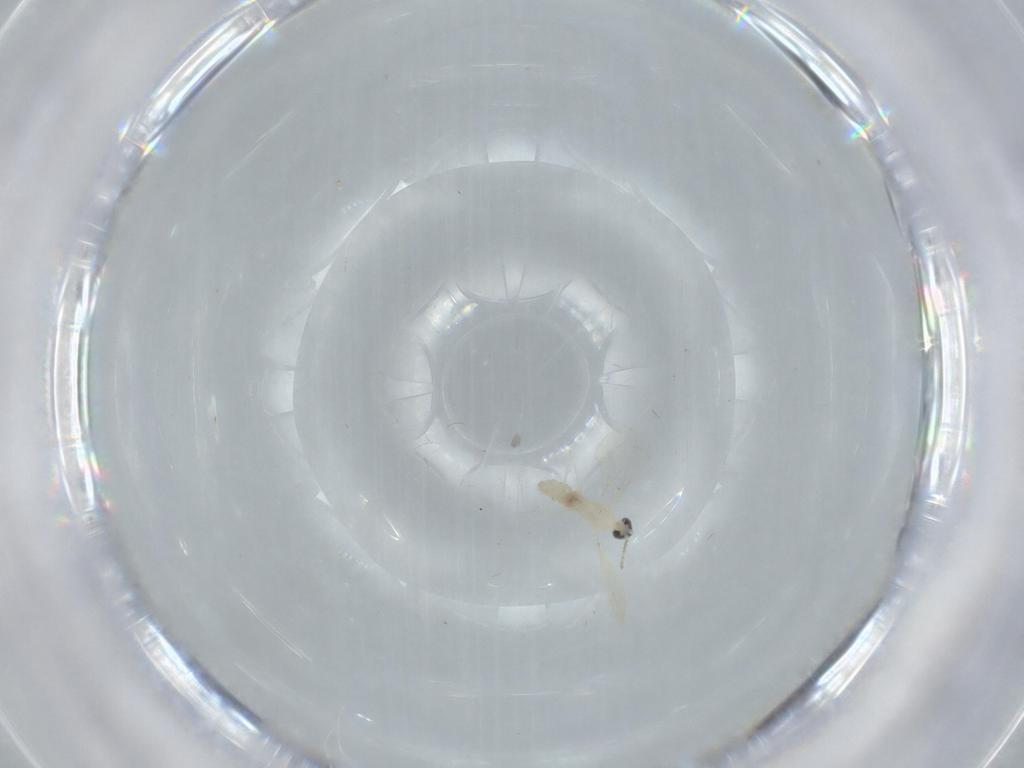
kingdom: Animalia
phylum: Arthropoda
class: Insecta
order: Diptera
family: Cecidomyiidae
